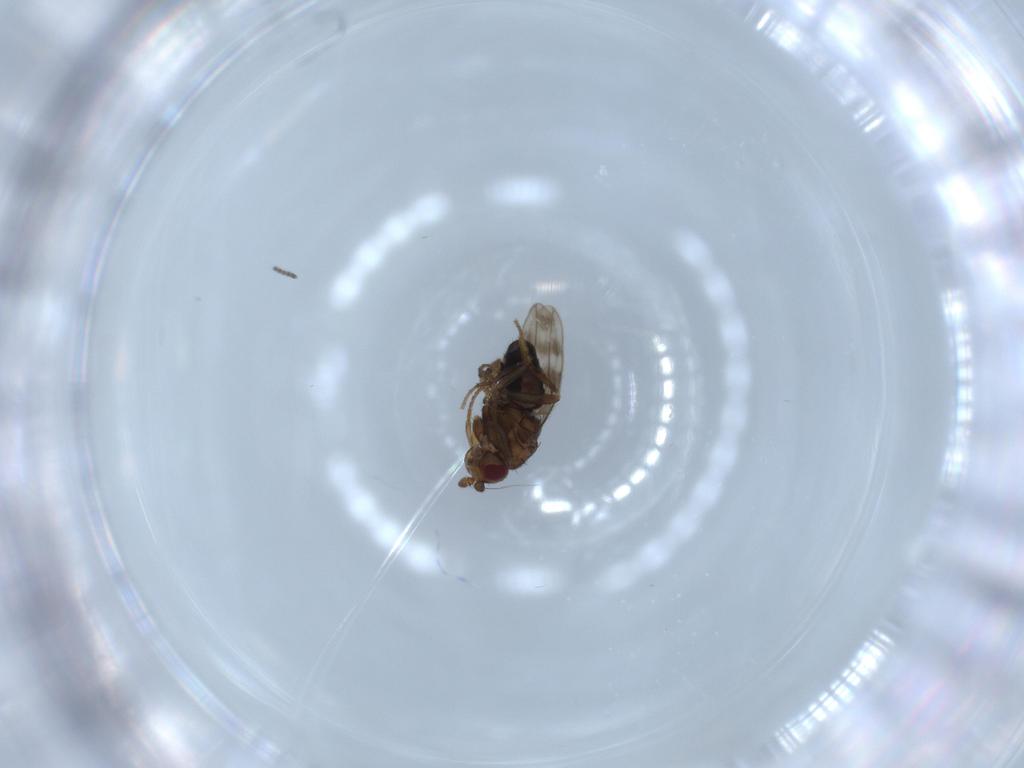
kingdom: Animalia
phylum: Arthropoda
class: Insecta
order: Diptera
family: Sphaeroceridae
